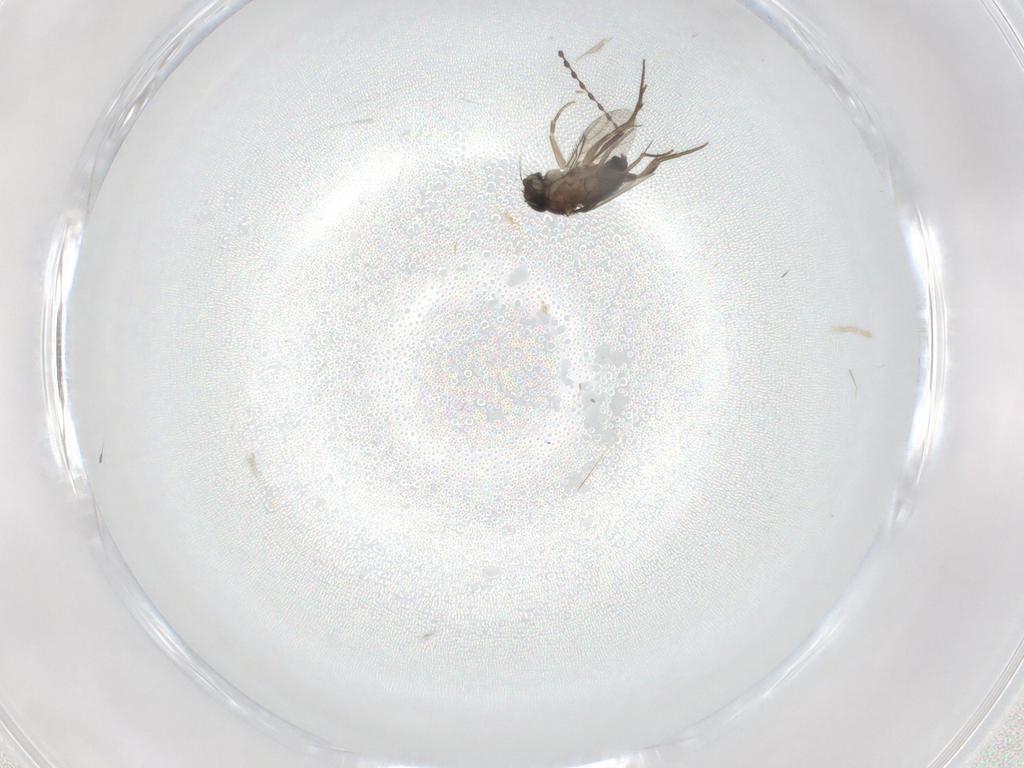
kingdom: Animalia
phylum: Arthropoda
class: Insecta
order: Diptera
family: Phoridae
